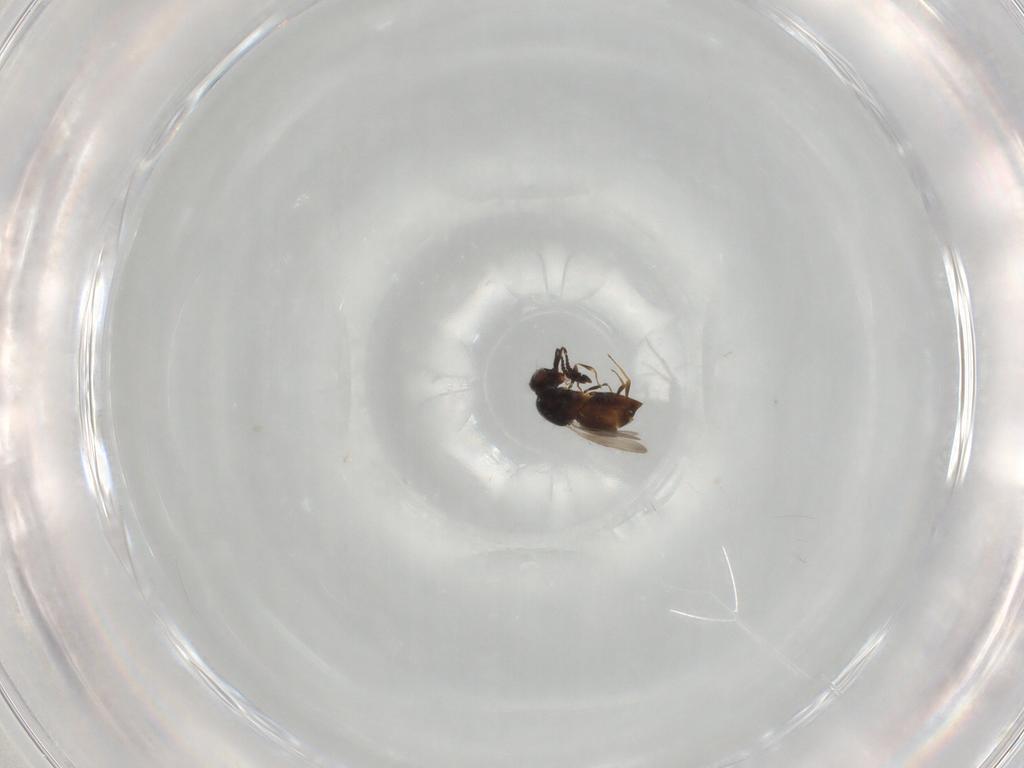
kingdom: Animalia
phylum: Arthropoda
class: Insecta
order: Hymenoptera
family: Ceraphronidae
